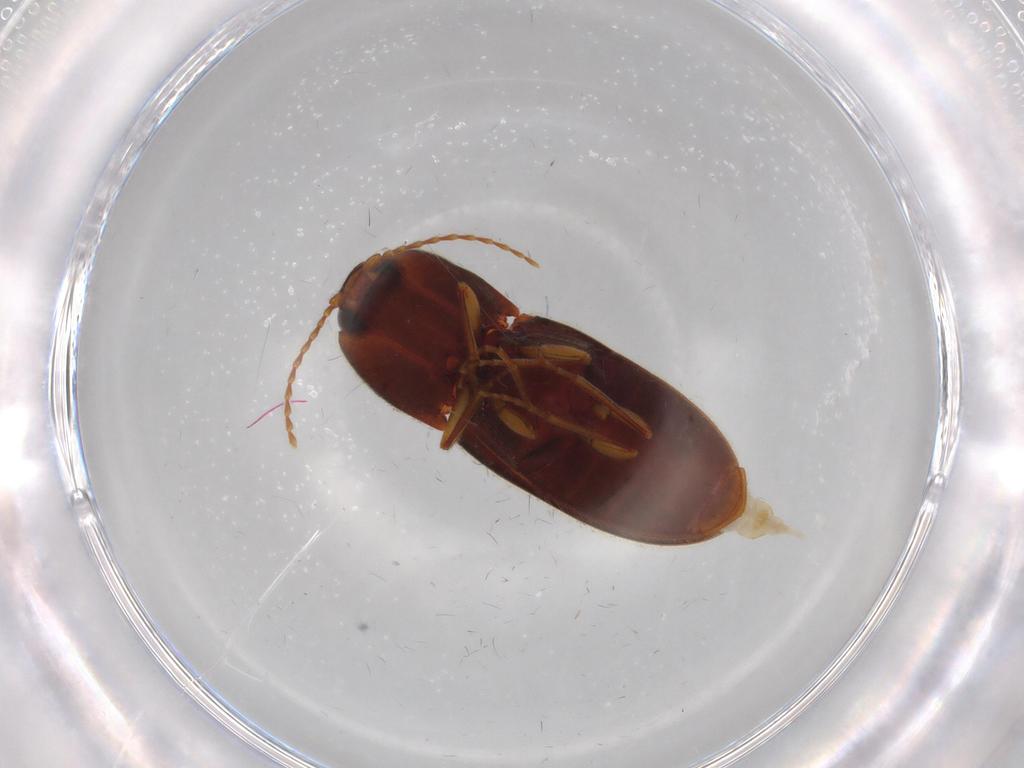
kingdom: Animalia
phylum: Arthropoda
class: Insecta
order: Coleoptera
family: Elateridae
